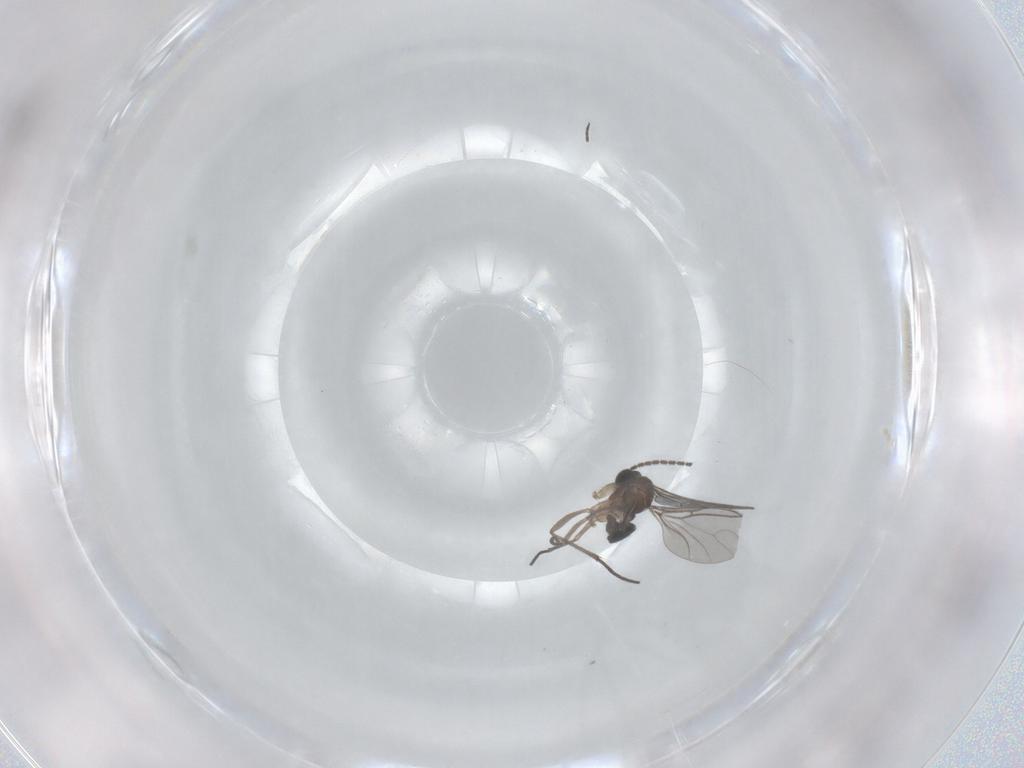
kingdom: Animalia
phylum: Arthropoda
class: Insecta
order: Diptera
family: Sciaridae
